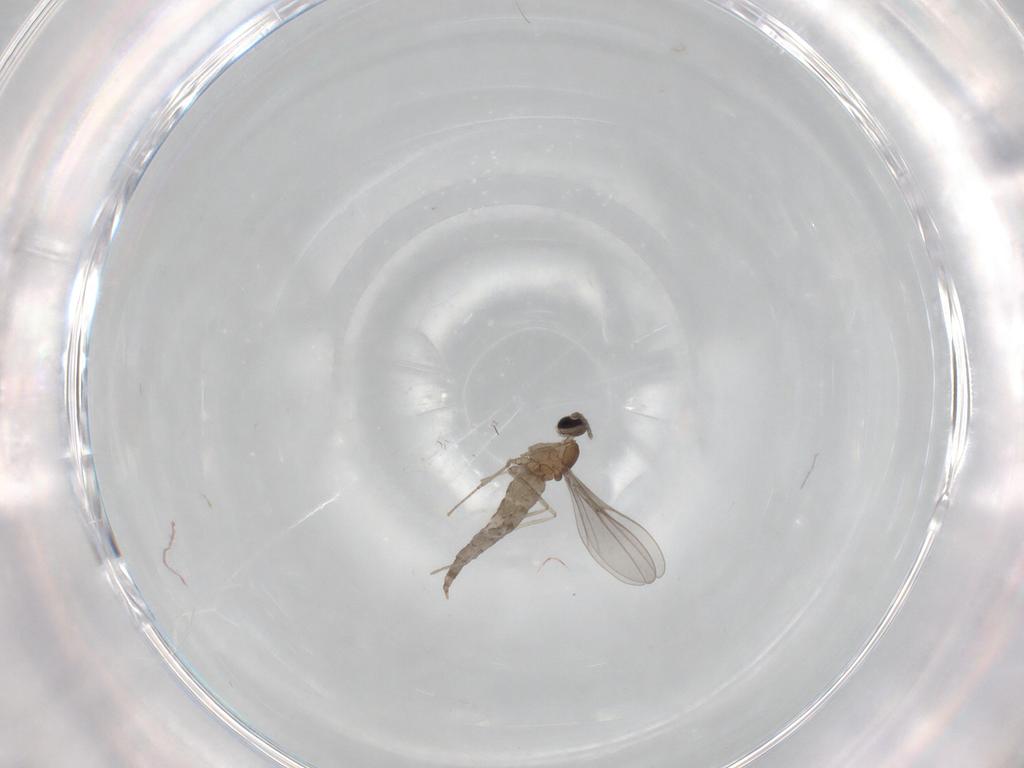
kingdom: Animalia
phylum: Arthropoda
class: Insecta
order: Diptera
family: Cecidomyiidae
